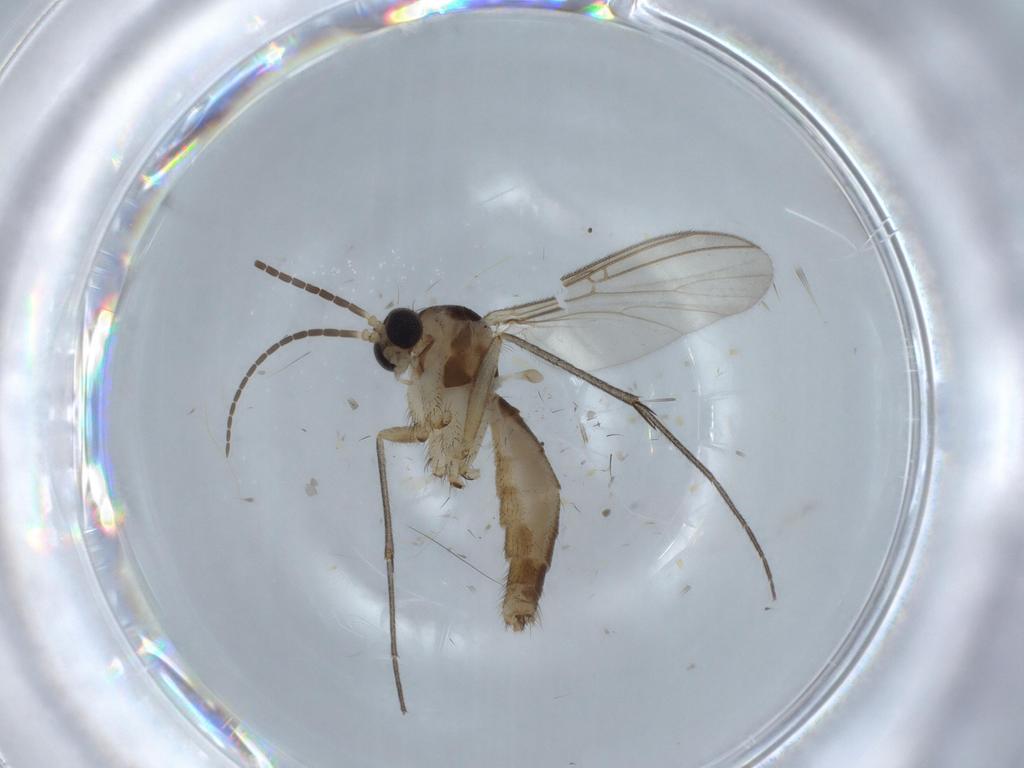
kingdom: Animalia
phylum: Arthropoda
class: Insecta
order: Diptera
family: Mycetophilidae
